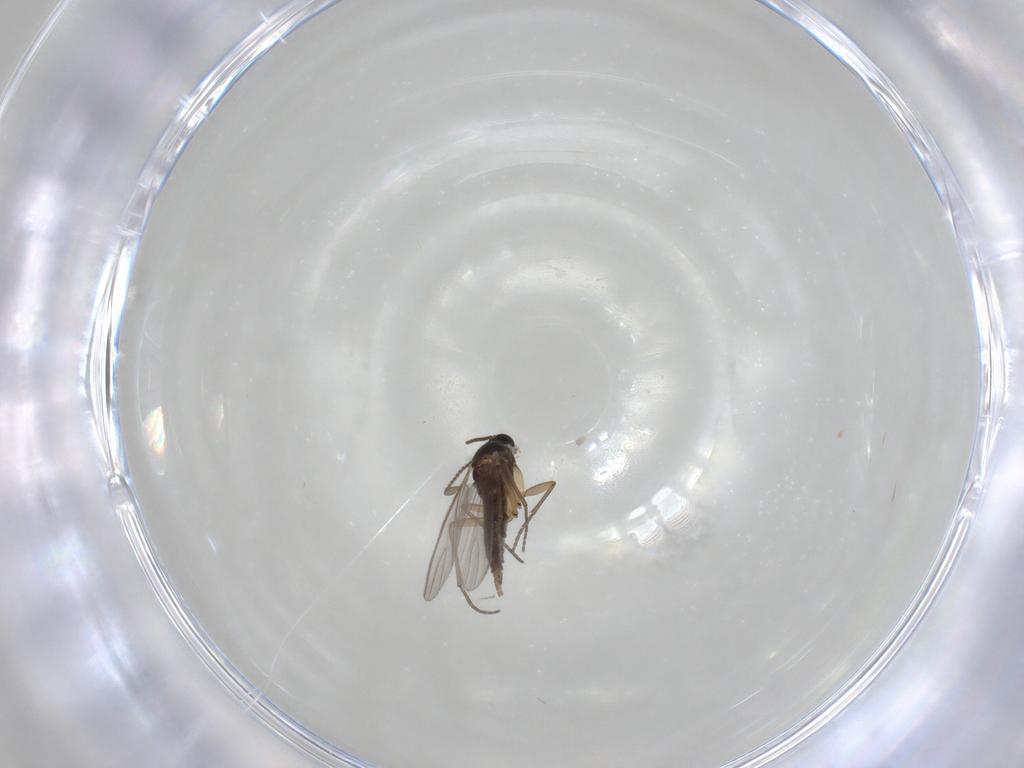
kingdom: Animalia
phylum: Arthropoda
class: Insecta
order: Diptera
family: Sciaridae
